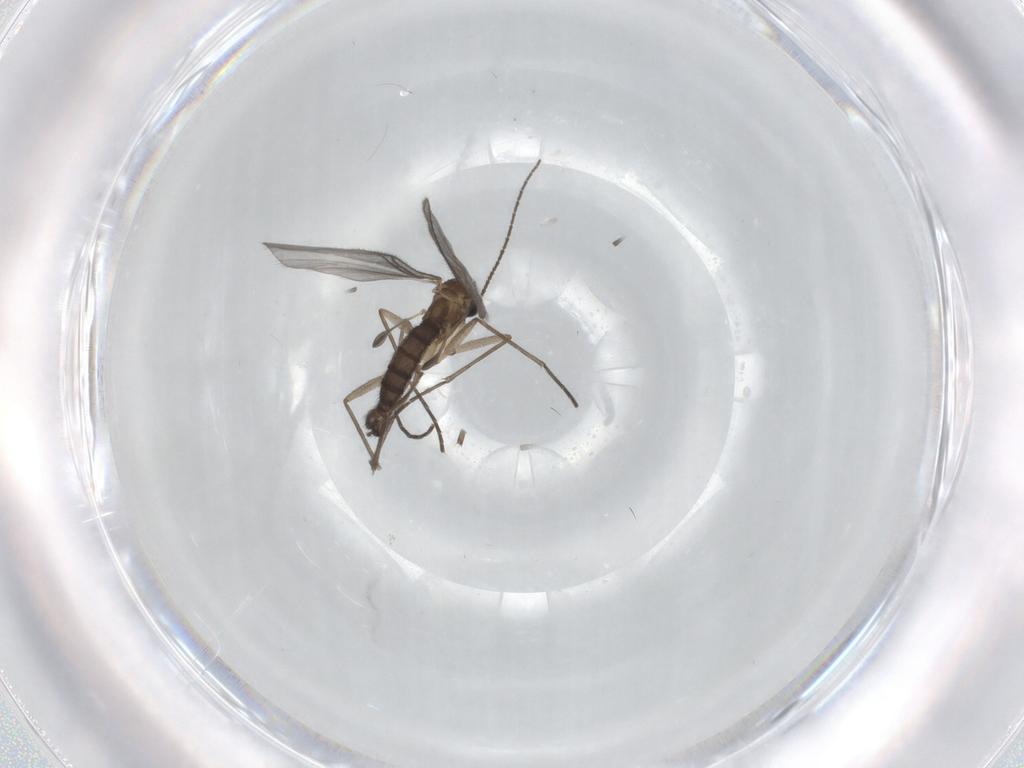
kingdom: Animalia
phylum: Arthropoda
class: Insecta
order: Diptera
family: Sciaridae
